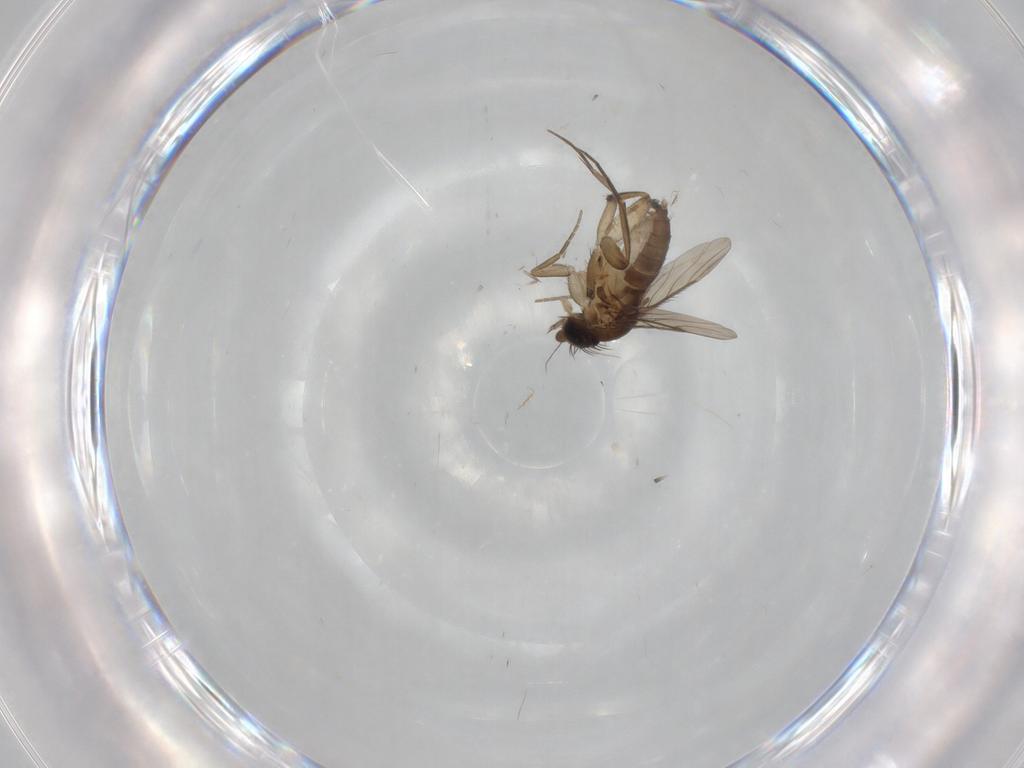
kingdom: Animalia
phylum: Arthropoda
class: Insecta
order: Diptera
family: Phoridae
